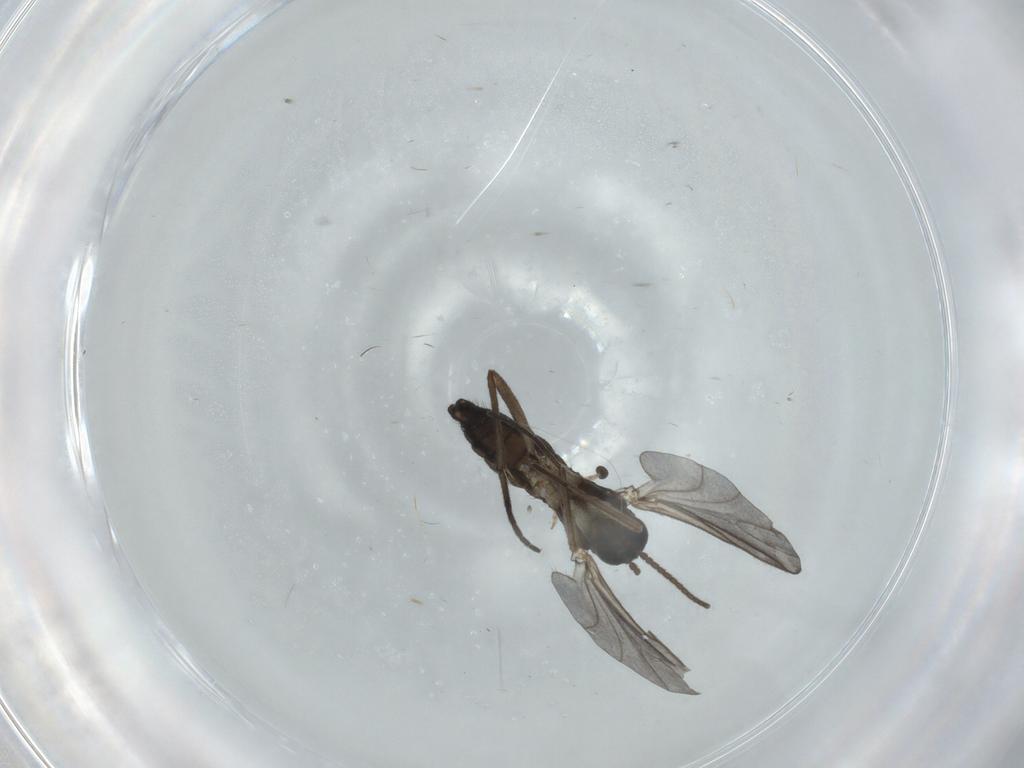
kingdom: Animalia
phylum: Arthropoda
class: Insecta
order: Diptera
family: Sciaridae
